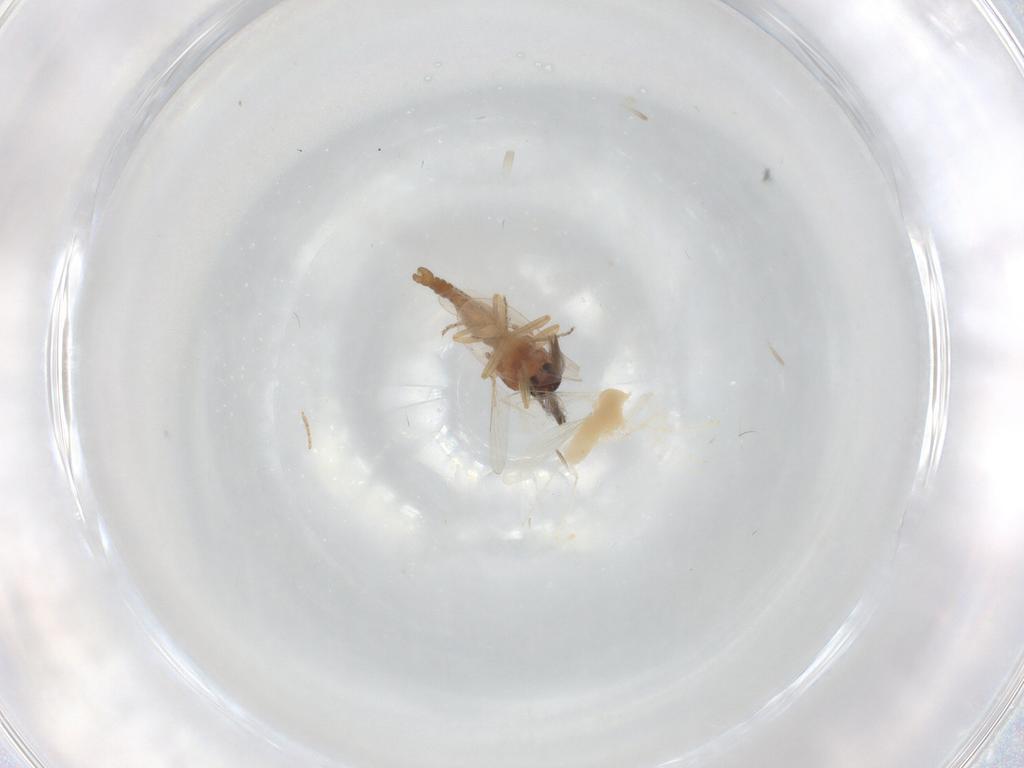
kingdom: Animalia
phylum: Arthropoda
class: Insecta
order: Diptera
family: Ceratopogonidae
